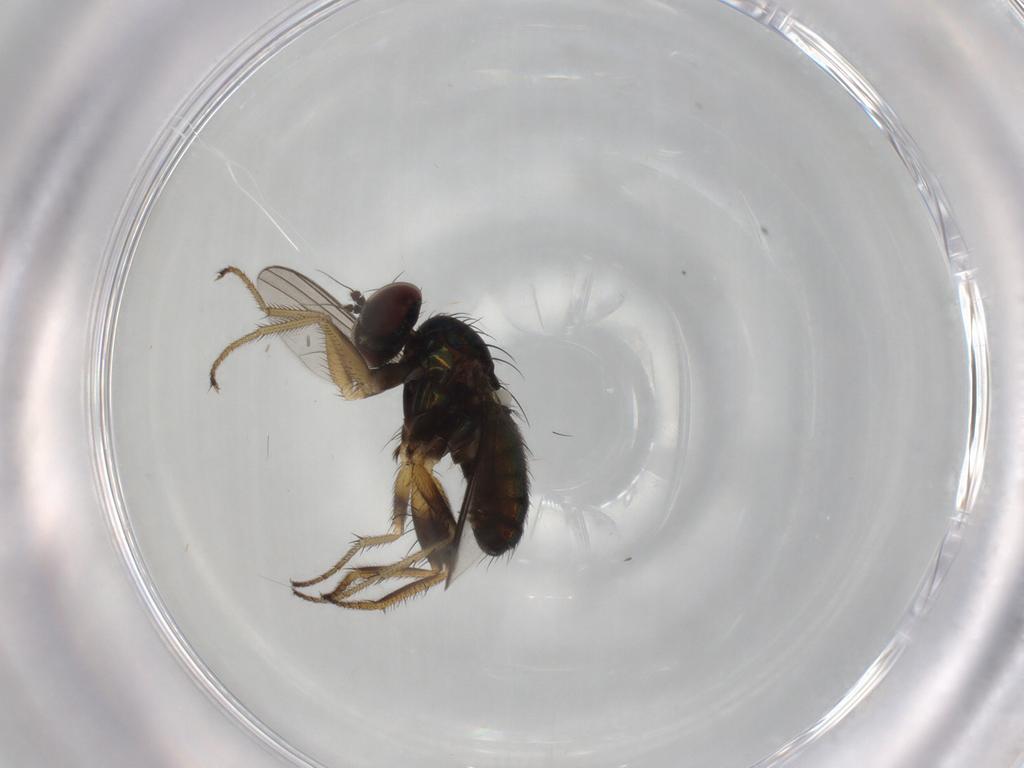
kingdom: Animalia
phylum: Arthropoda
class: Insecta
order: Diptera
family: Dolichopodidae
